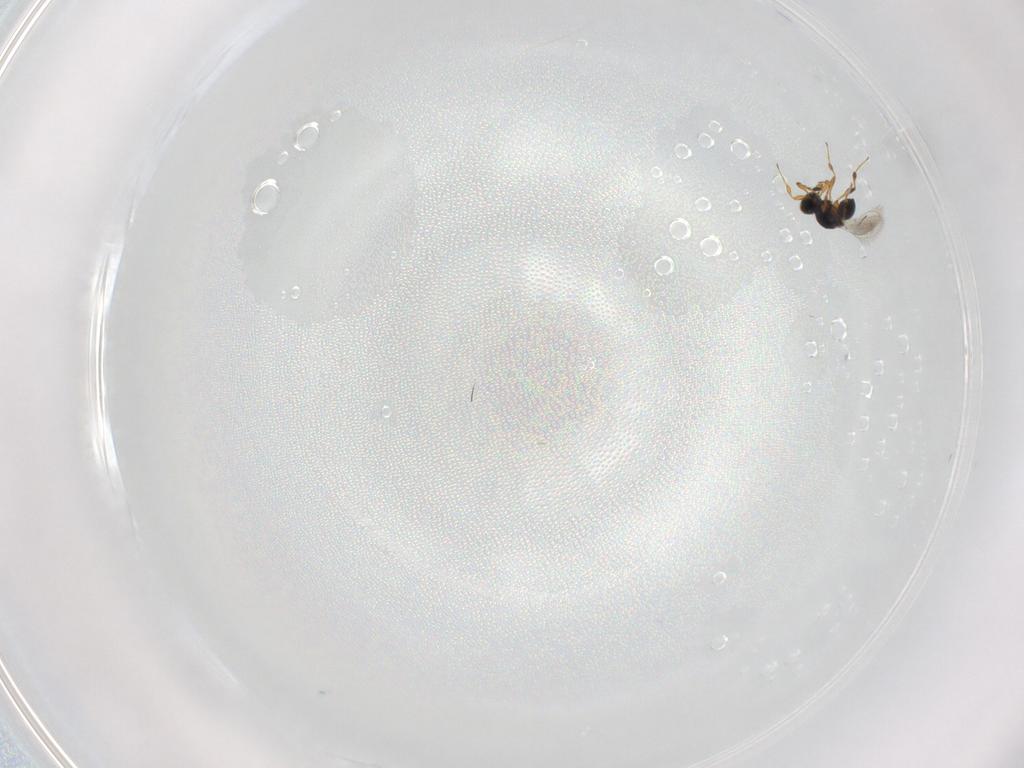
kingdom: Animalia
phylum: Arthropoda
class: Insecta
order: Hymenoptera
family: Platygastridae
